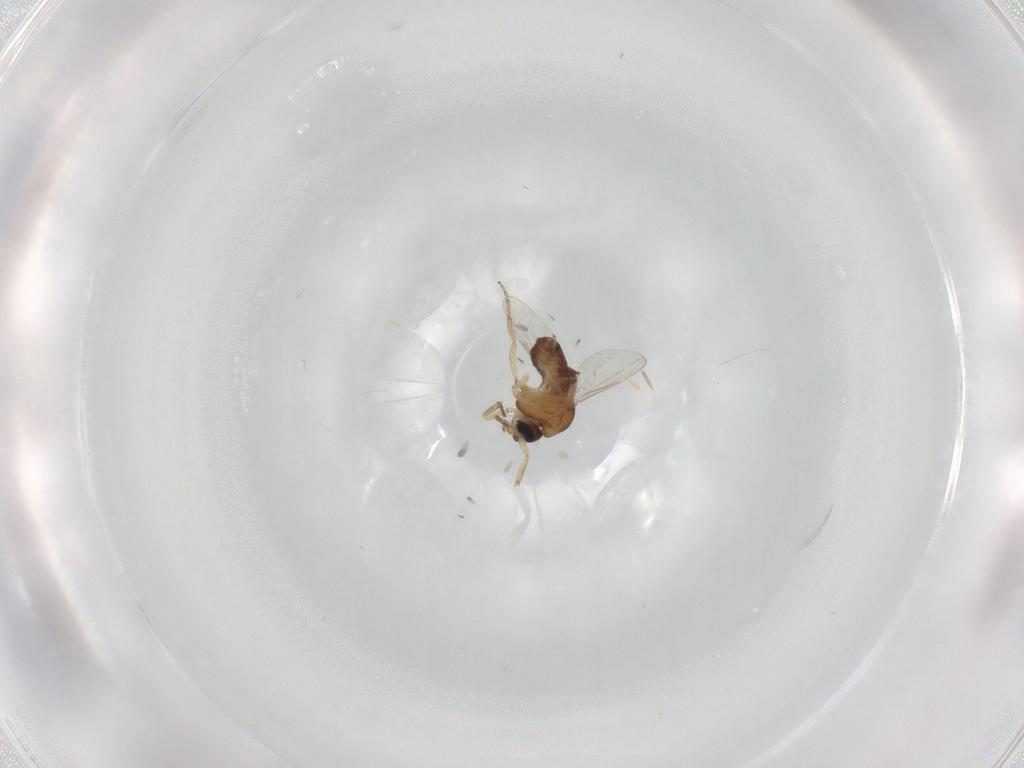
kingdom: Animalia
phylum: Arthropoda
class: Insecta
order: Diptera
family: Ceratopogonidae
